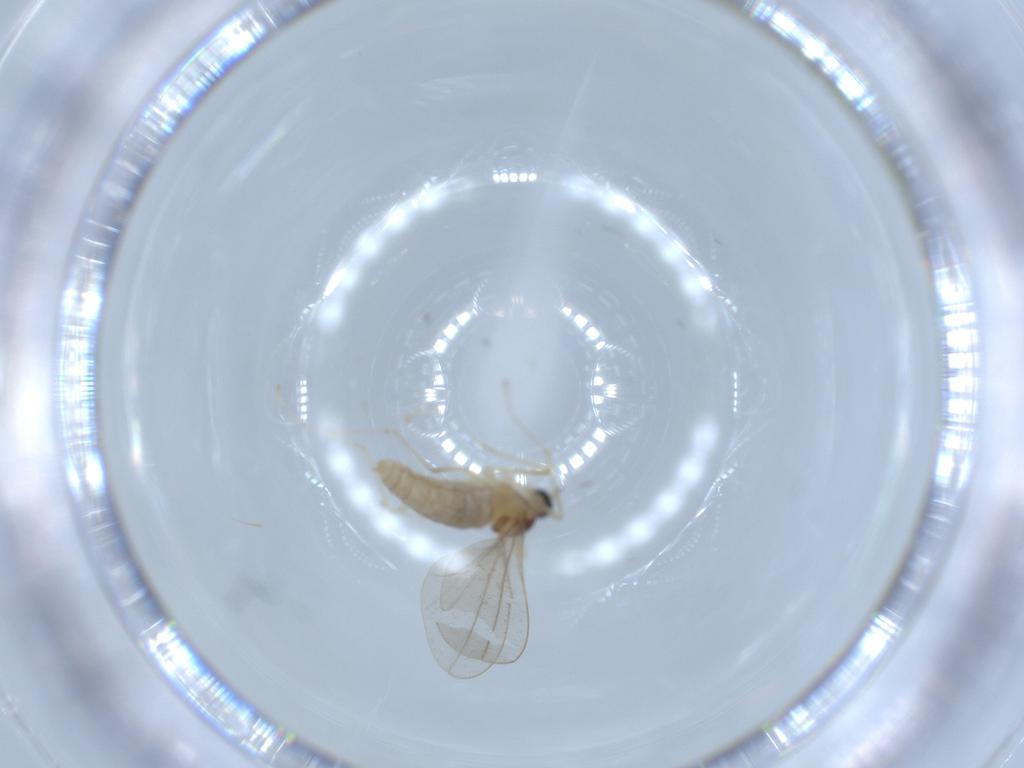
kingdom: Animalia
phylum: Arthropoda
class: Insecta
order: Diptera
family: Cecidomyiidae
